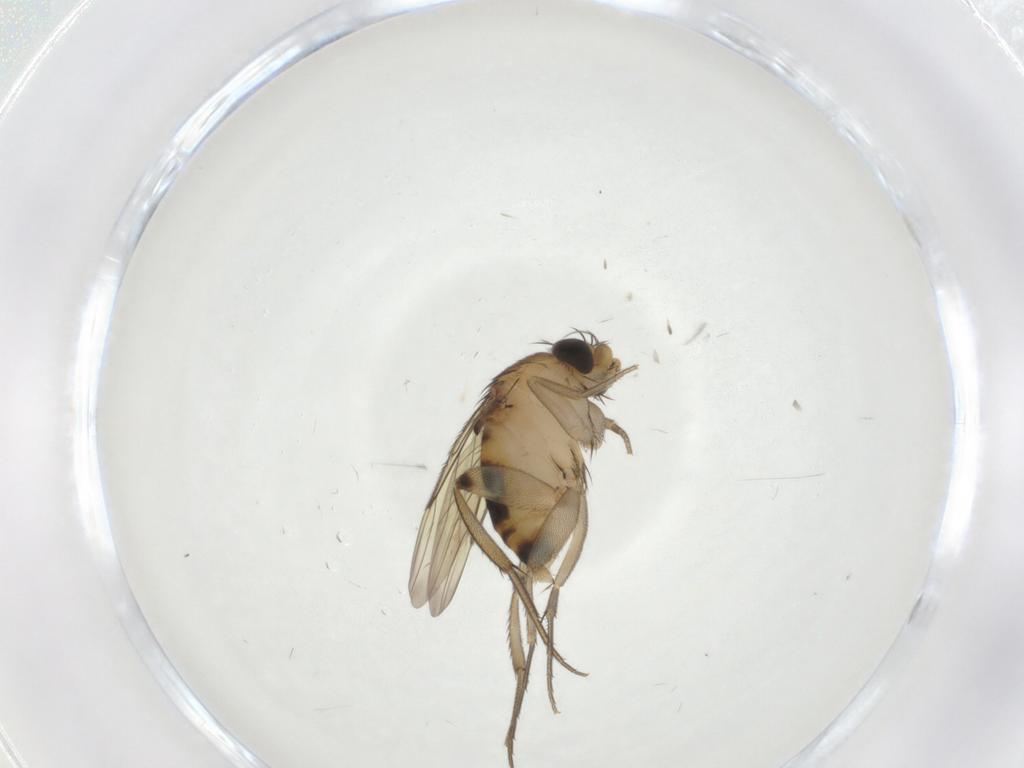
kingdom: Animalia
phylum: Arthropoda
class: Insecta
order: Diptera
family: Phoridae
